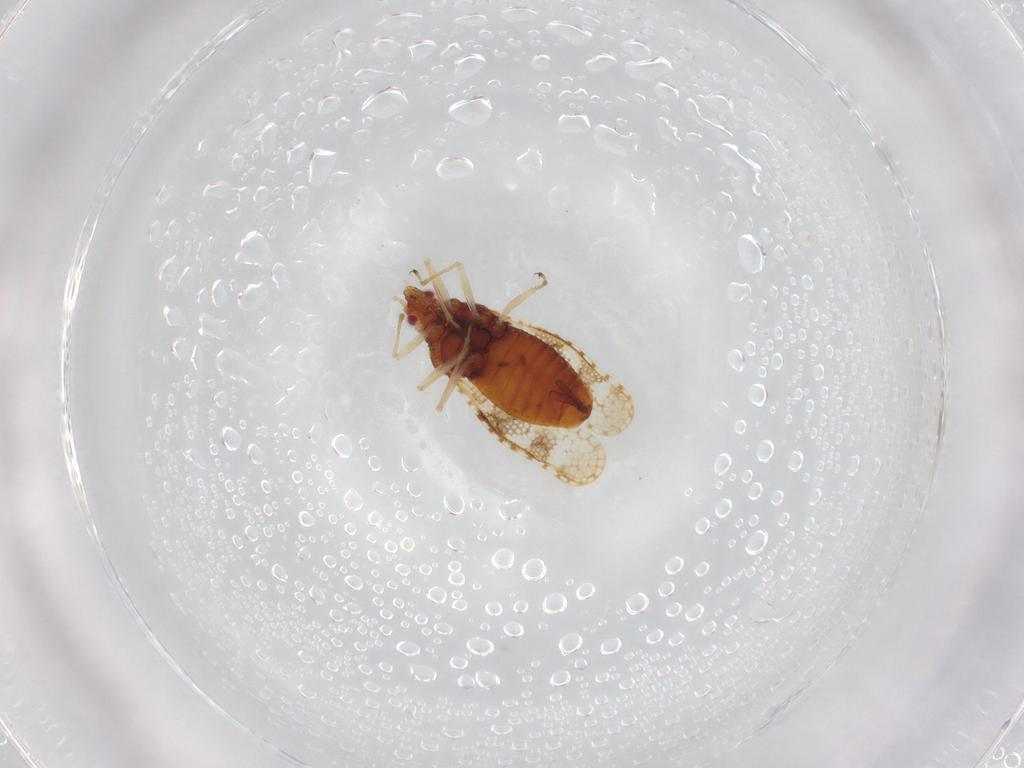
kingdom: Animalia
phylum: Arthropoda
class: Insecta
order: Hemiptera
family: Tingidae
